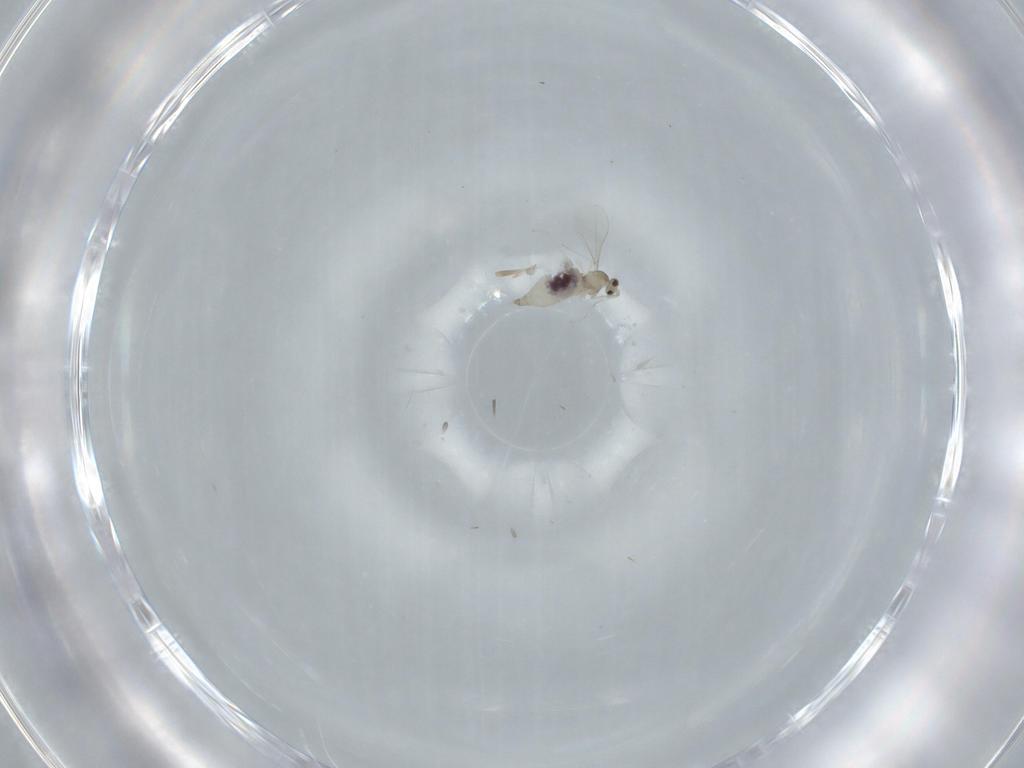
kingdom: Animalia
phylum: Arthropoda
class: Insecta
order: Diptera
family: Cecidomyiidae
